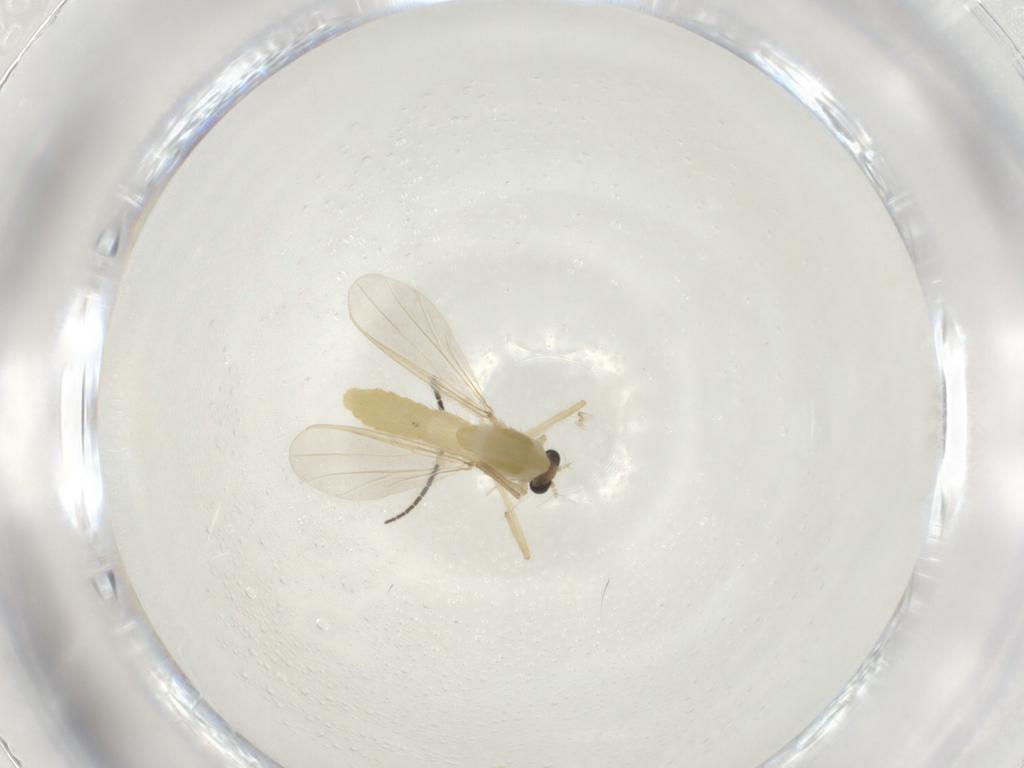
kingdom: Animalia
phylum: Arthropoda
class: Insecta
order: Diptera
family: Chironomidae
